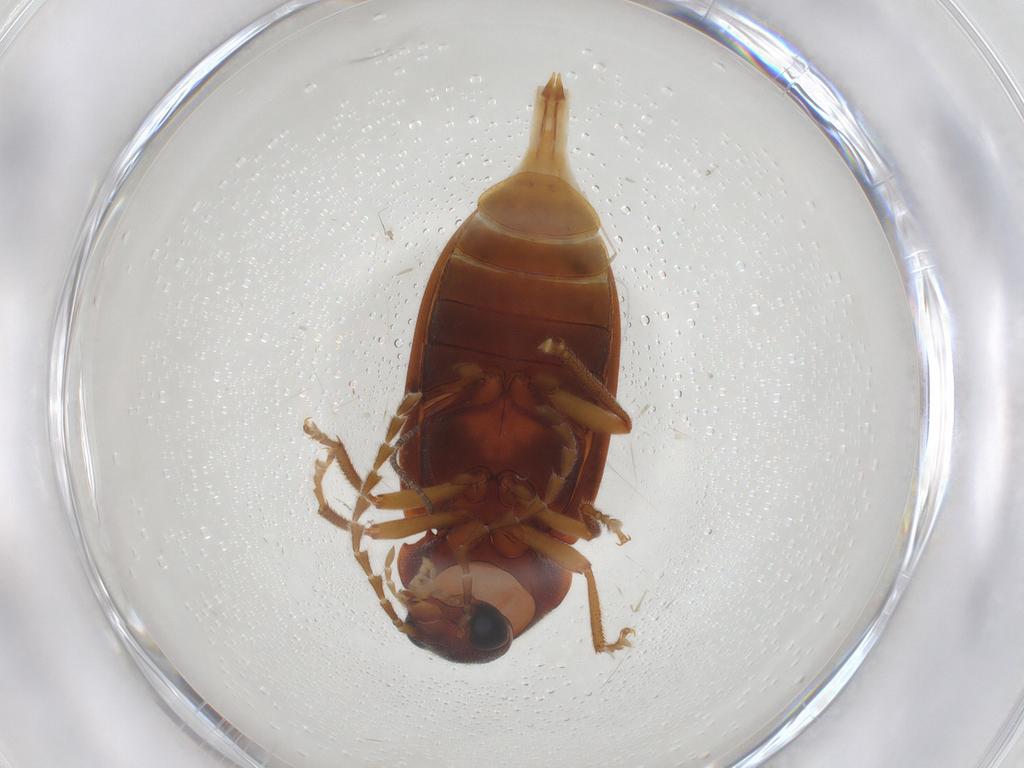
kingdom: Animalia
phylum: Arthropoda
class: Insecta
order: Coleoptera
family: Ptilodactylidae
